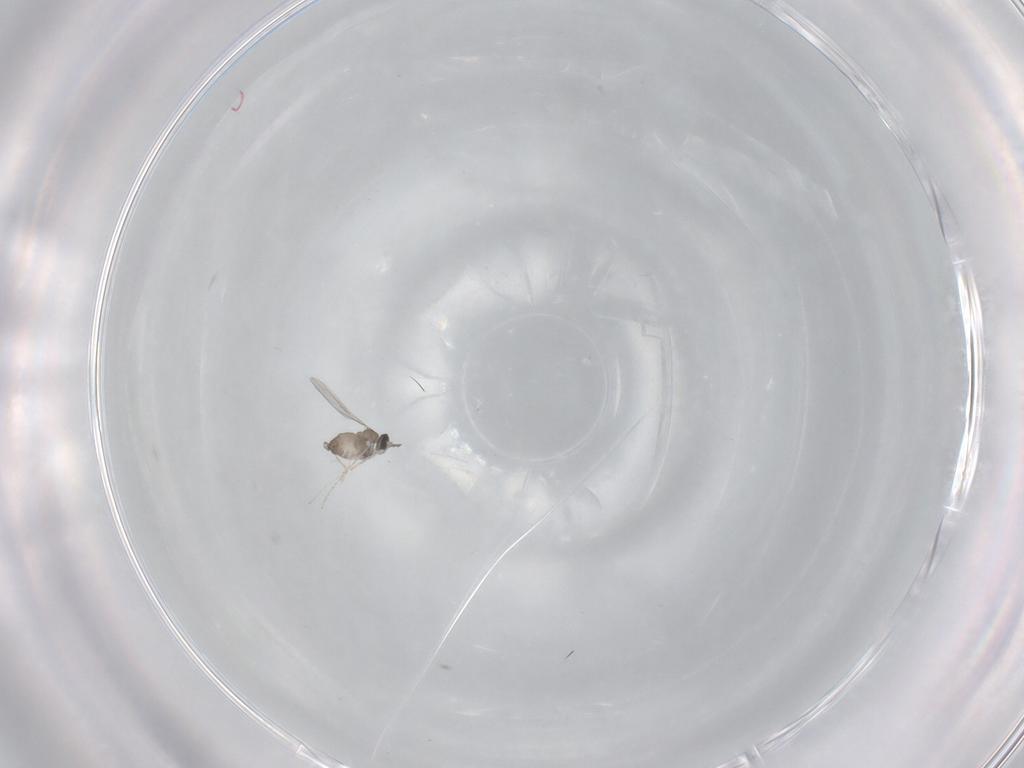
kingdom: Animalia
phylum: Arthropoda
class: Insecta
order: Diptera
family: Cecidomyiidae
